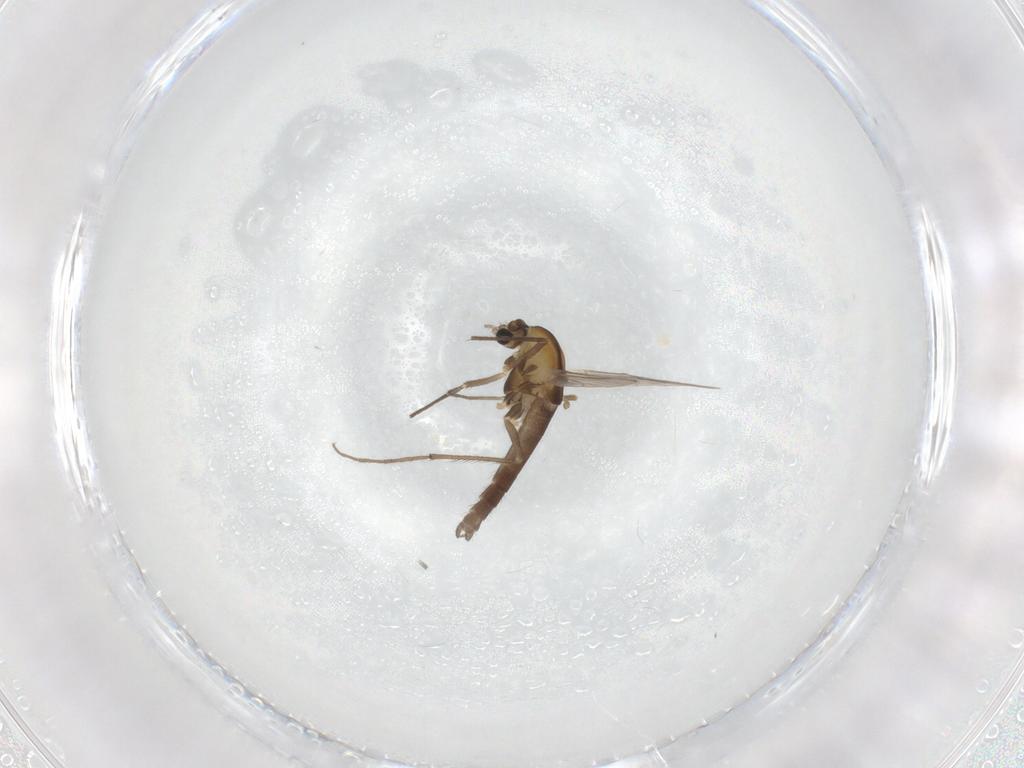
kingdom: Animalia
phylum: Arthropoda
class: Insecta
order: Diptera
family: Chironomidae
